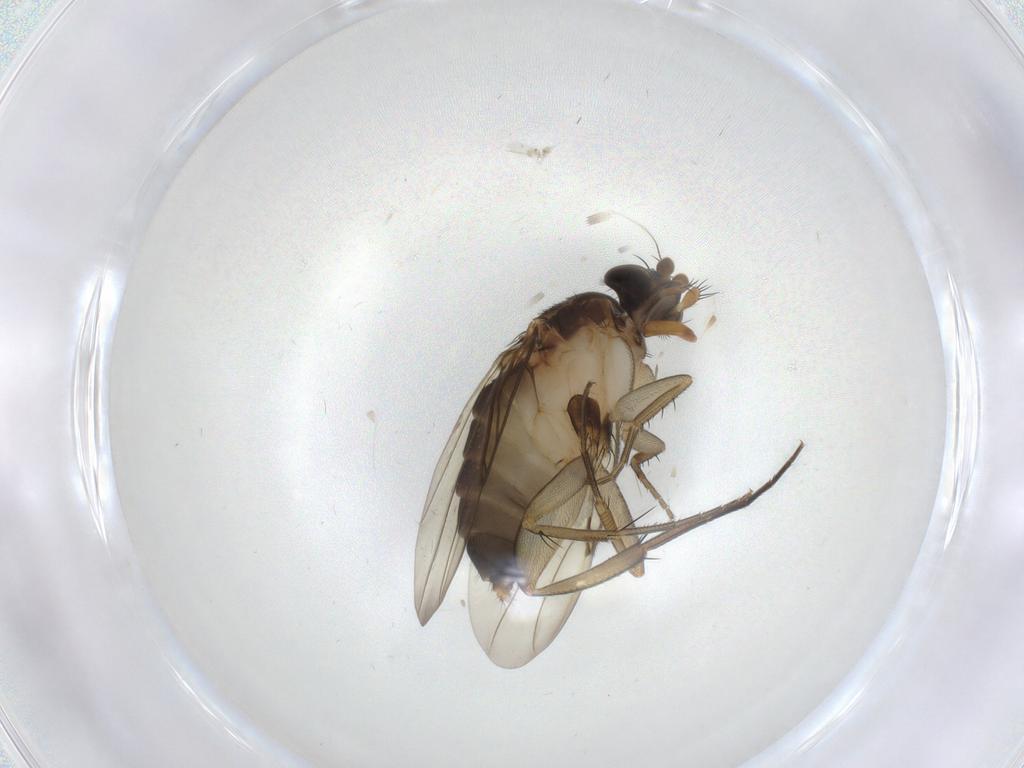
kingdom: Animalia
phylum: Arthropoda
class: Insecta
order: Diptera
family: Phoridae
